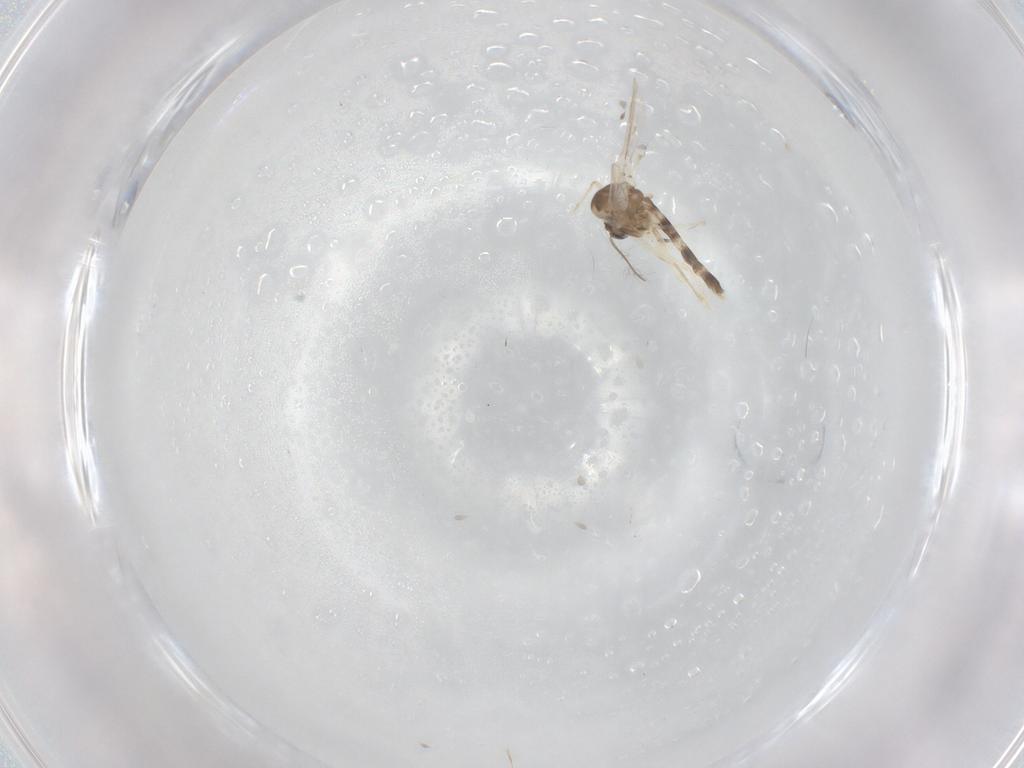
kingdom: Animalia
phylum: Arthropoda
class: Insecta
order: Diptera
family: Chironomidae
